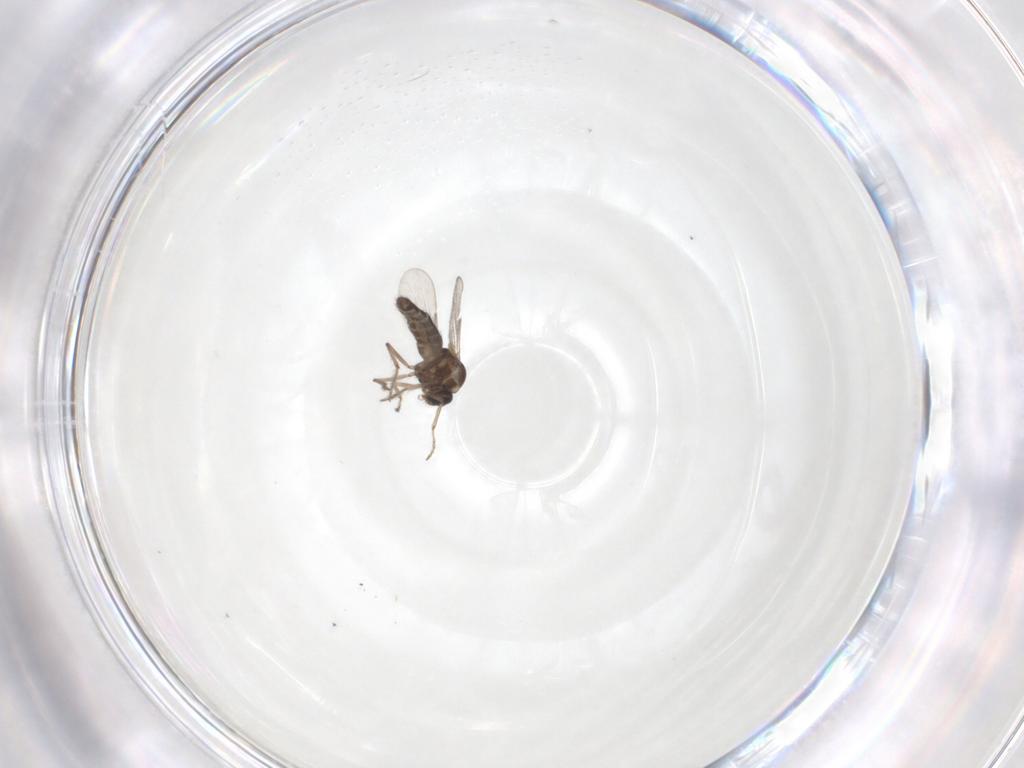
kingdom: Animalia
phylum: Arthropoda
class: Insecta
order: Diptera
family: Ceratopogonidae
